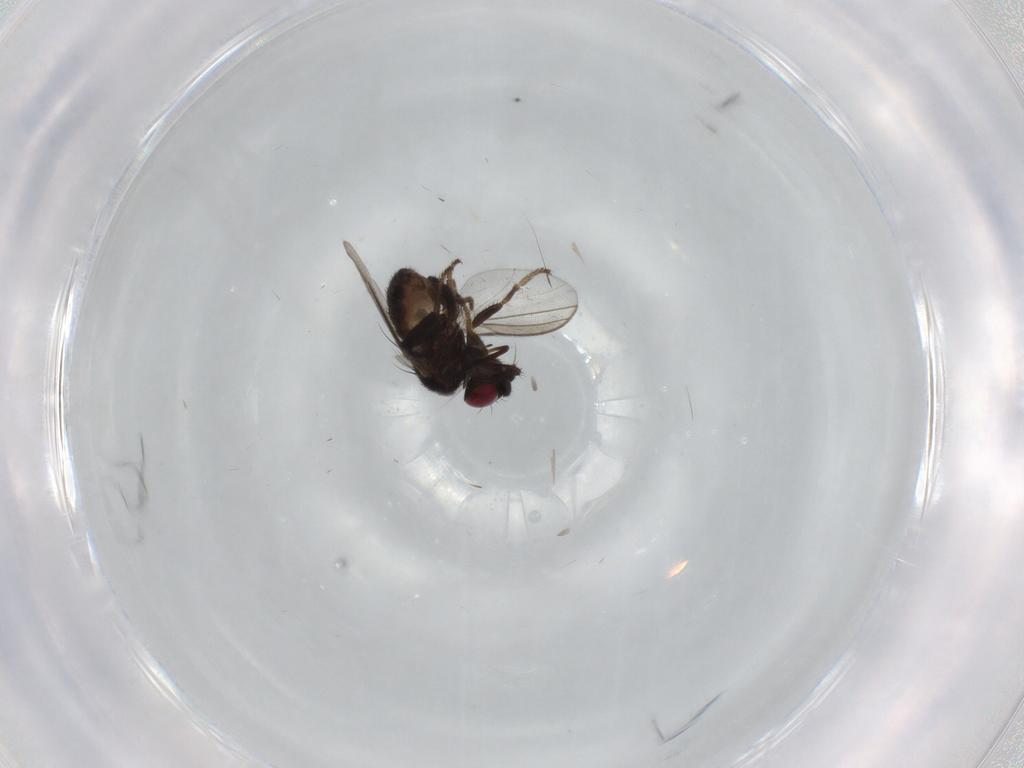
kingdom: Animalia
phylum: Arthropoda
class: Insecta
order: Diptera
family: Milichiidae
